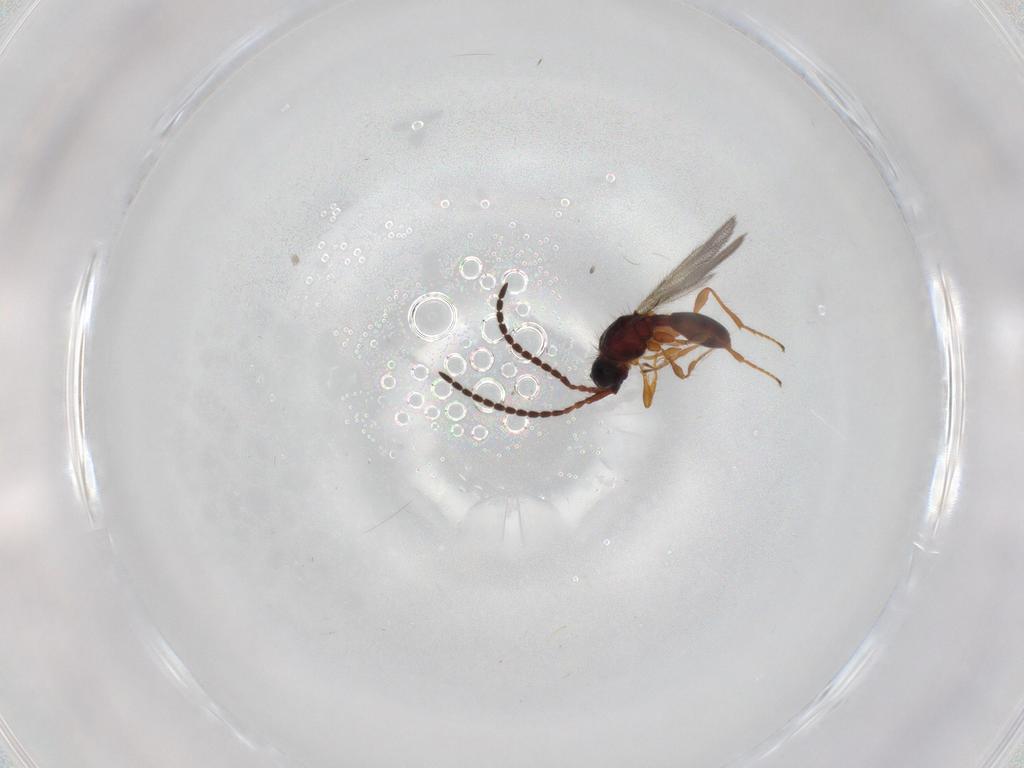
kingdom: Animalia
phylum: Arthropoda
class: Insecta
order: Hymenoptera
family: Diapriidae
